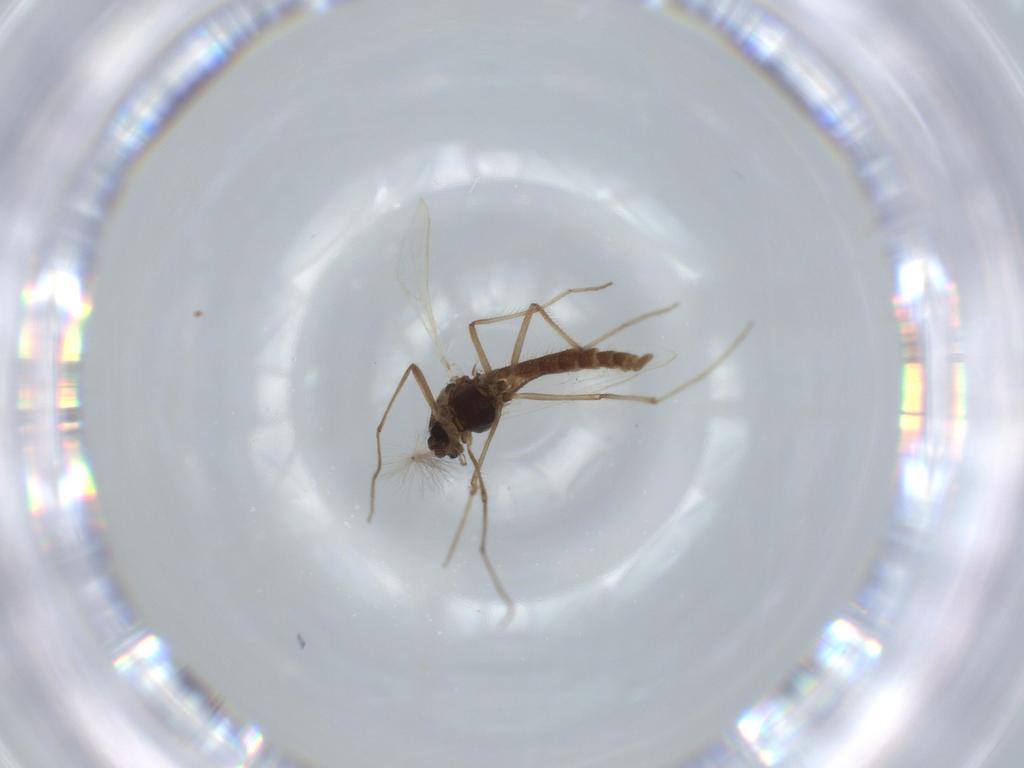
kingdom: Animalia
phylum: Arthropoda
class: Insecta
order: Diptera
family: Chironomidae
